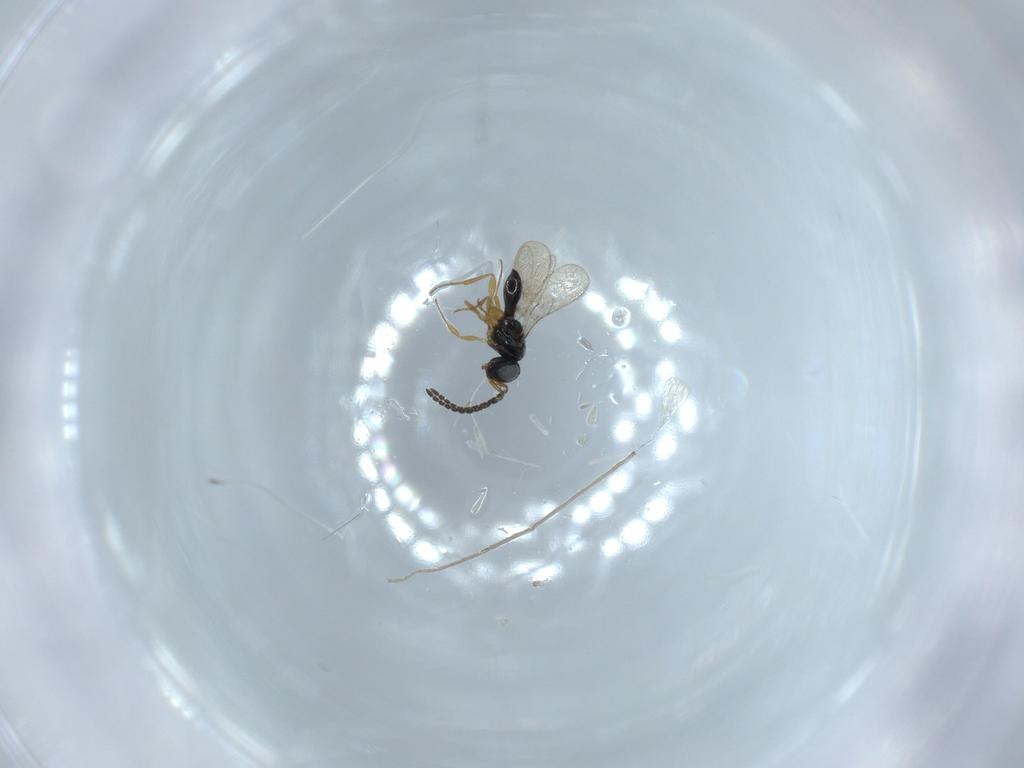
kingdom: Animalia
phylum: Arthropoda
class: Insecta
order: Hymenoptera
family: Scelionidae
